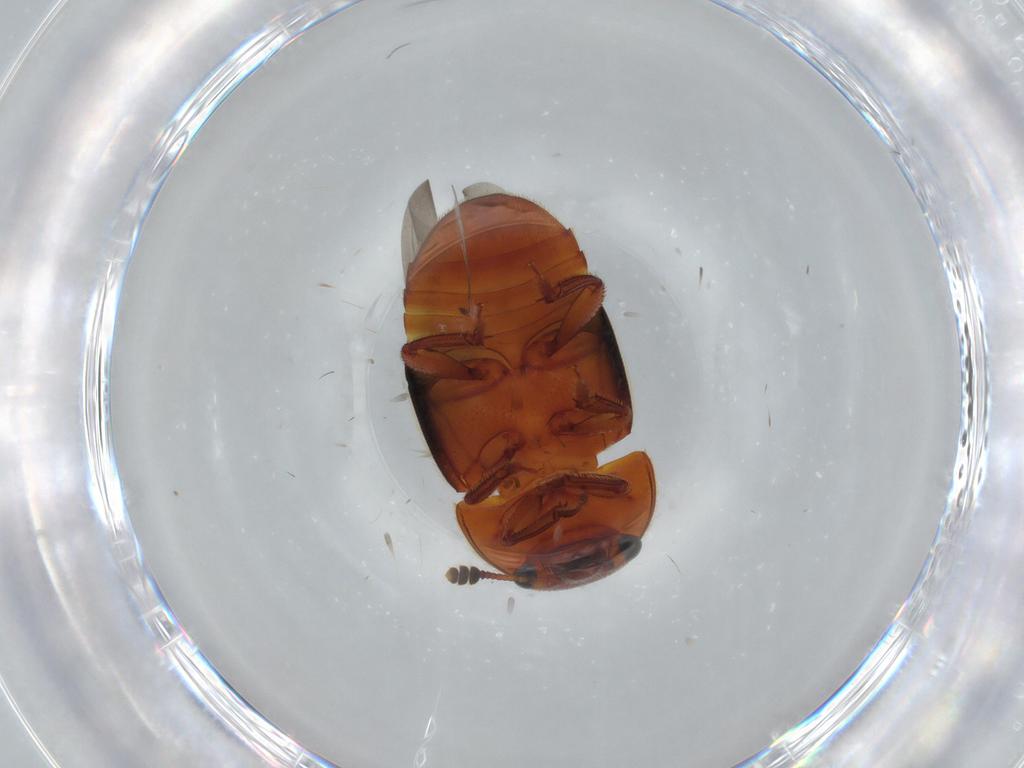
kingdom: Animalia
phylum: Arthropoda
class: Insecta
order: Coleoptera
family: Nitidulidae
